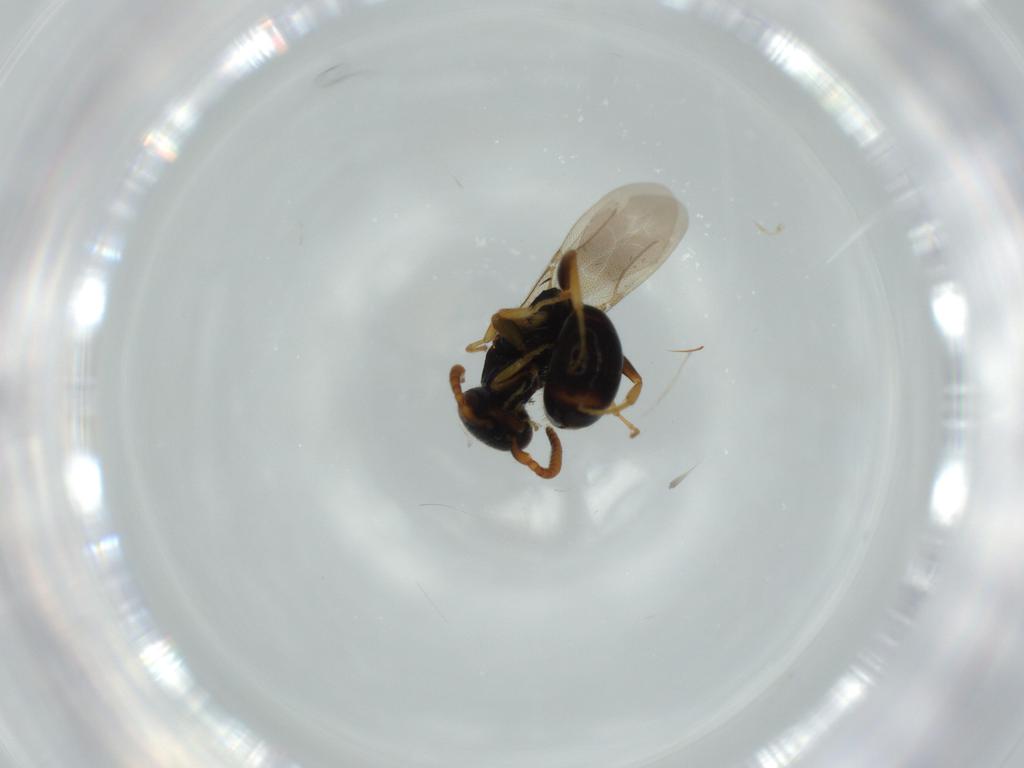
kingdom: Animalia
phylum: Arthropoda
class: Insecta
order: Hymenoptera
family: Bethylidae
